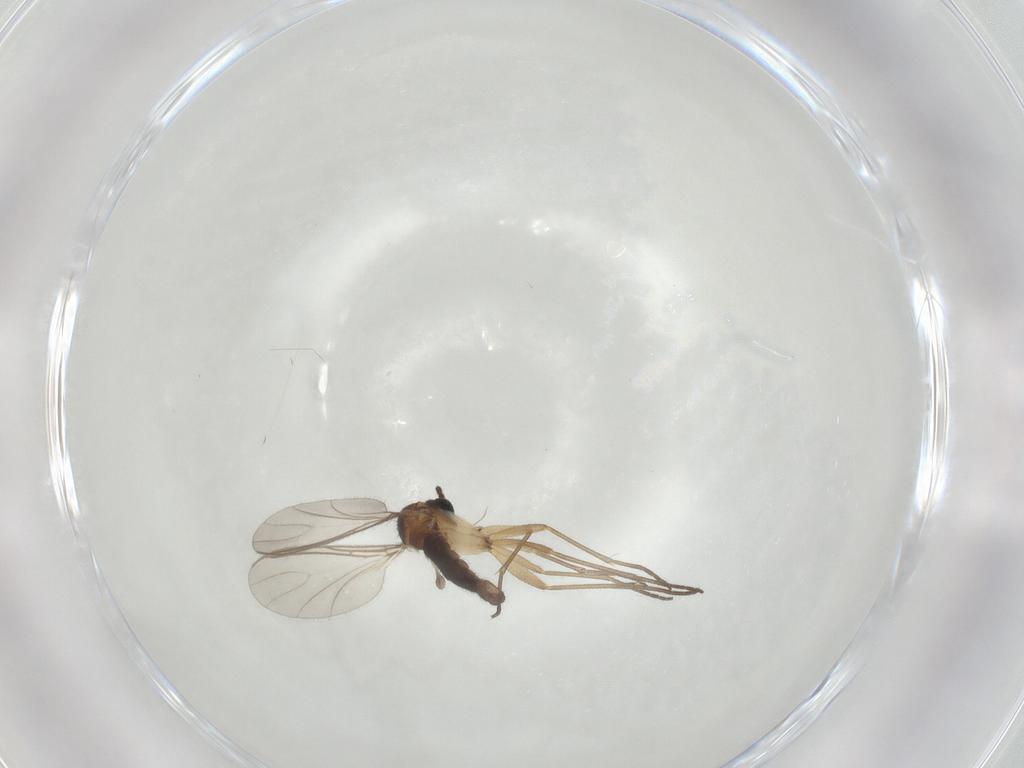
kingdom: Animalia
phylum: Arthropoda
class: Insecta
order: Diptera
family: Sciaridae
